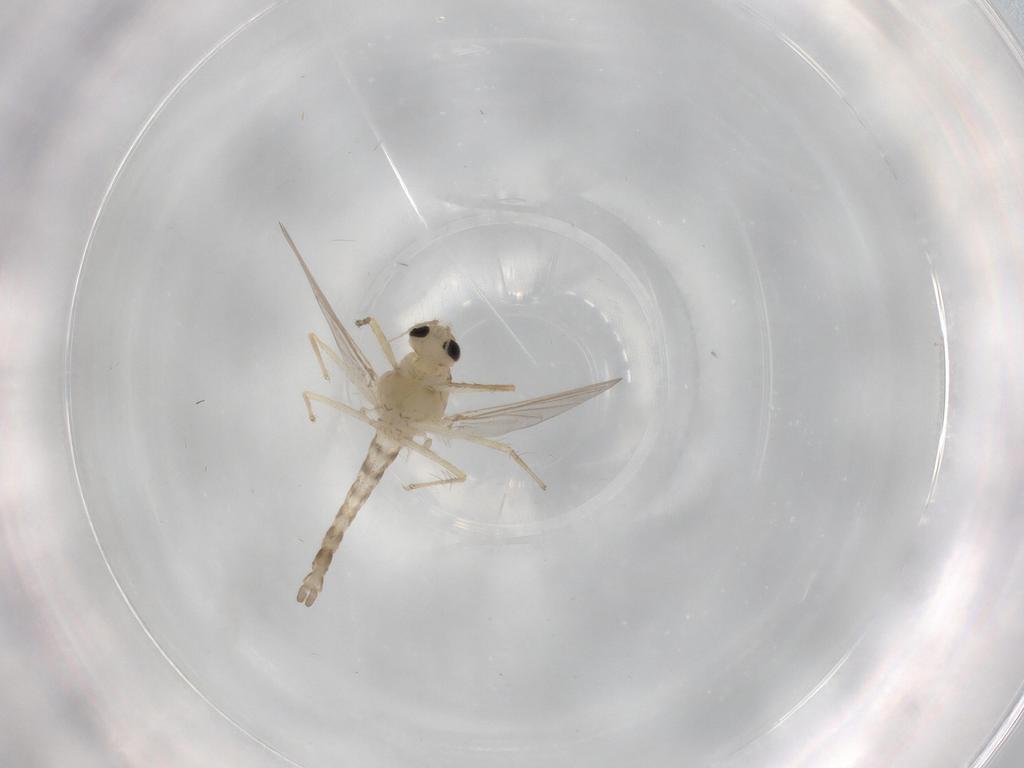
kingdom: Animalia
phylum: Arthropoda
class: Insecta
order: Diptera
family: Chironomidae
